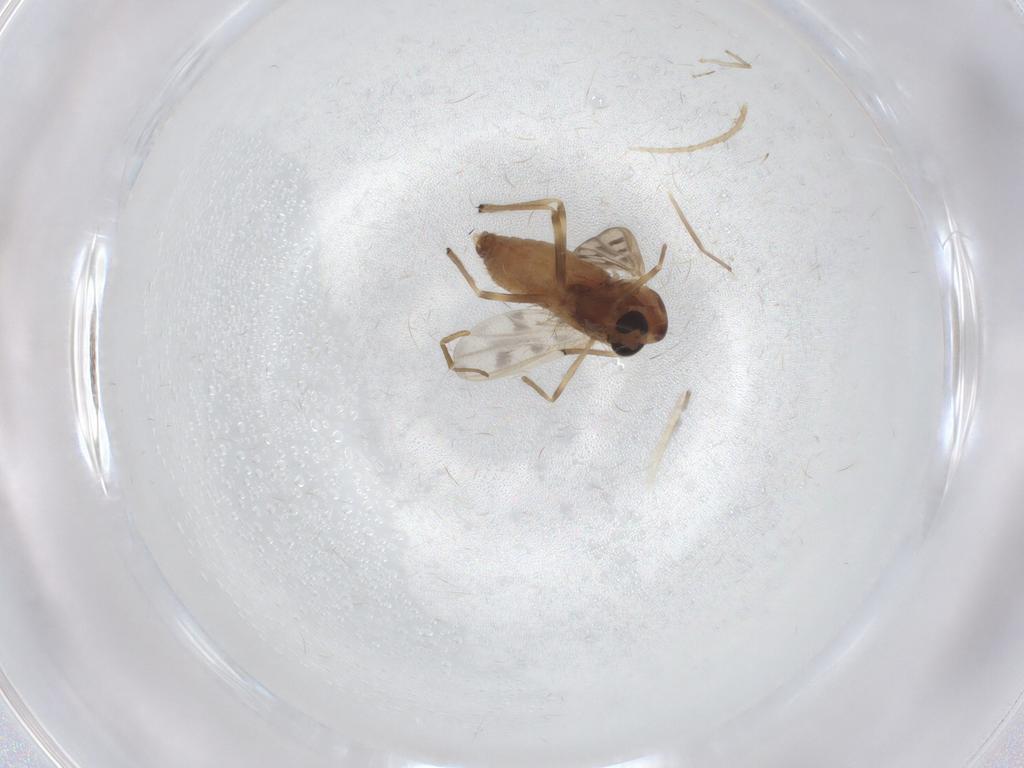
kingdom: Animalia
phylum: Arthropoda
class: Insecta
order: Diptera
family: Chironomidae
